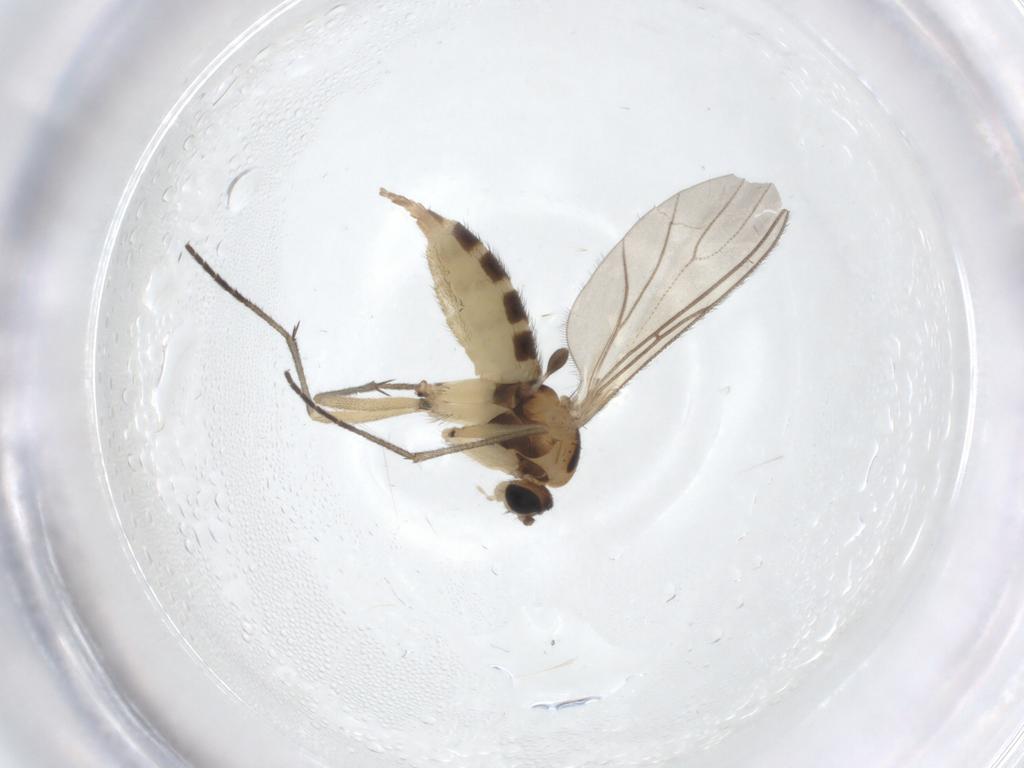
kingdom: Animalia
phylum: Arthropoda
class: Insecta
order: Diptera
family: Sciaridae
